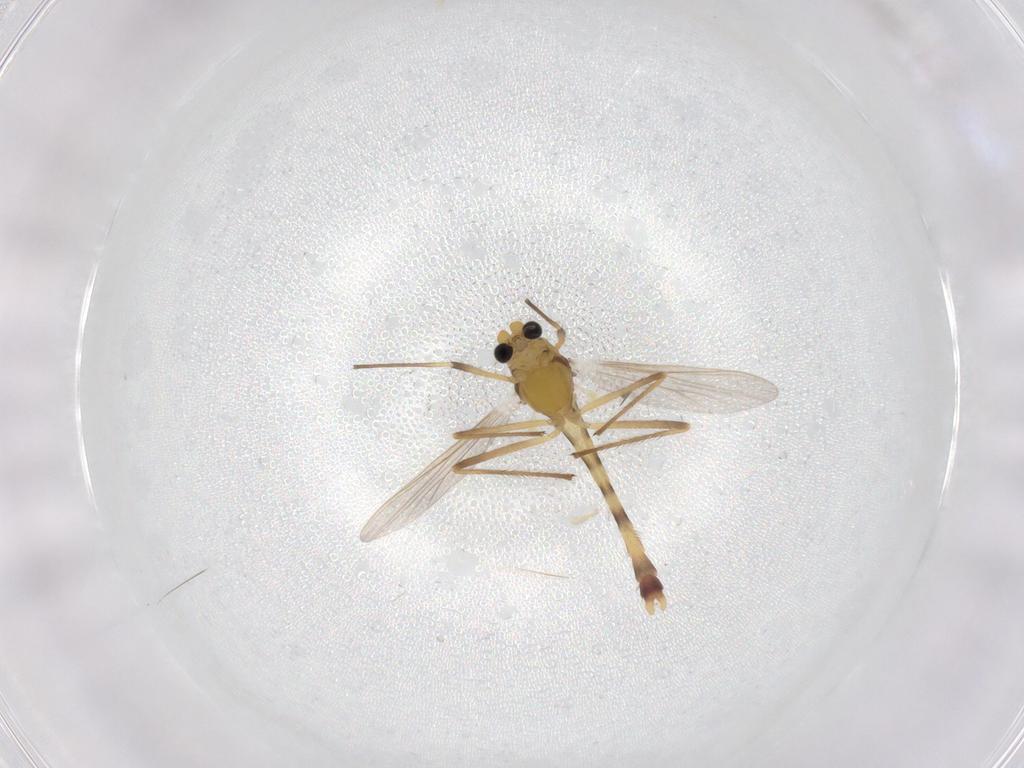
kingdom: Animalia
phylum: Arthropoda
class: Insecta
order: Diptera
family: Chironomidae
